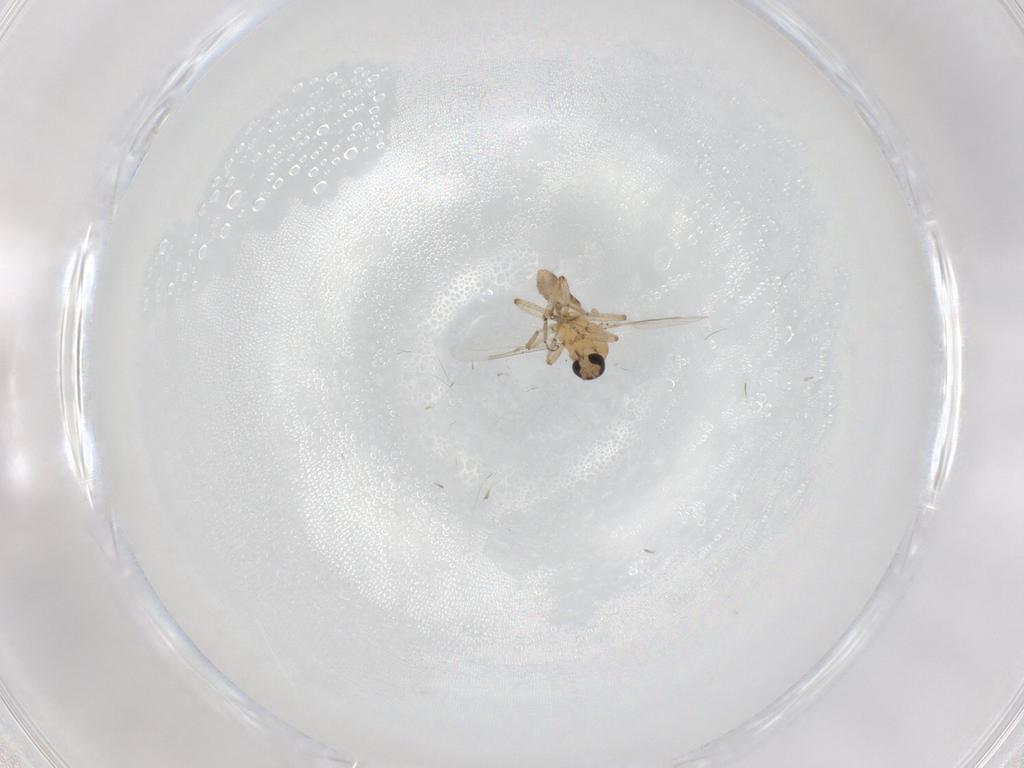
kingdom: Animalia
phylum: Arthropoda
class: Insecta
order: Diptera
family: Ceratopogonidae
